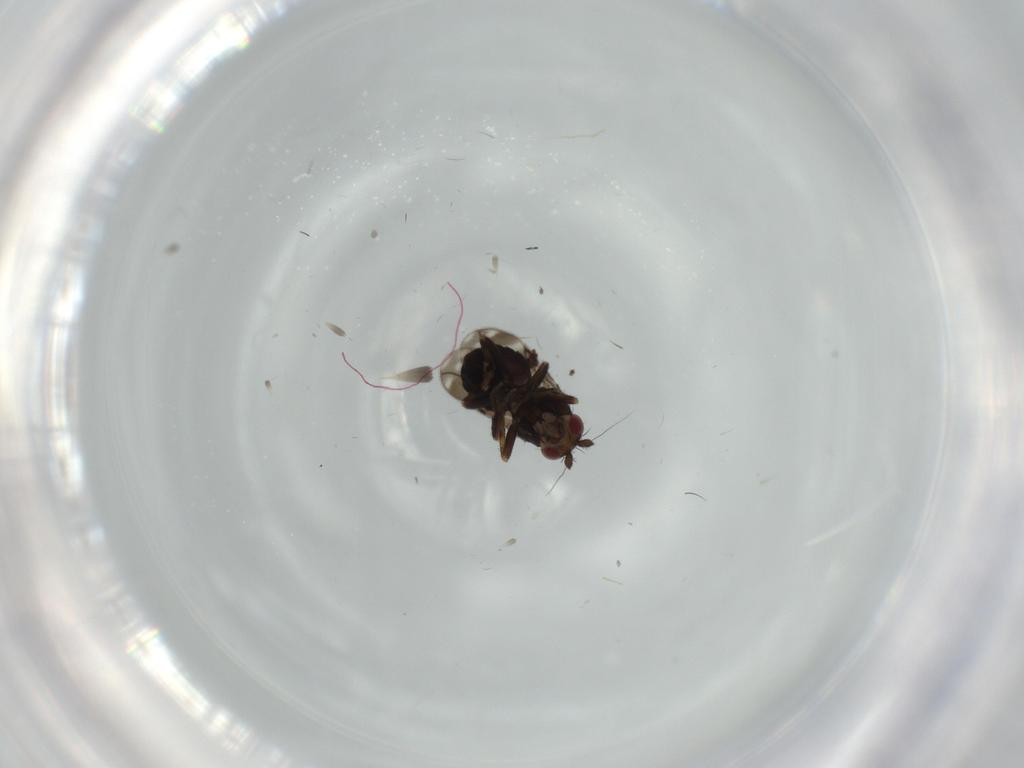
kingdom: Animalia
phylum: Arthropoda
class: Insecta
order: Diptera
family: Sphaeroceridae
